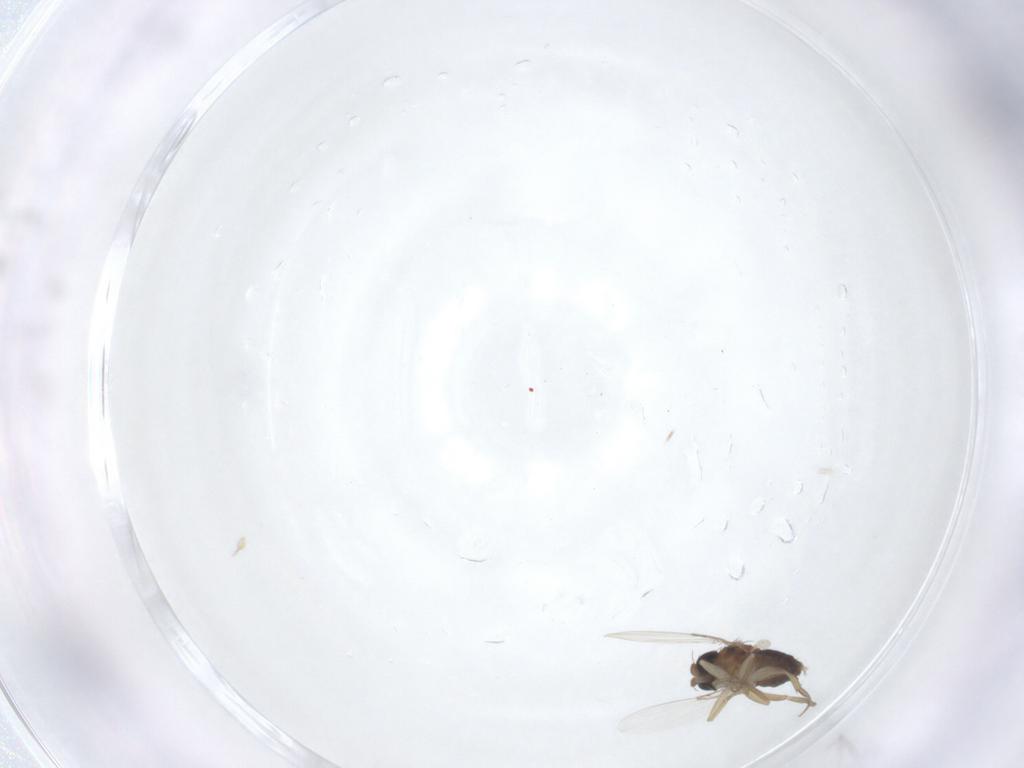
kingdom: Animalia
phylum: Arthropoda
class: Insecta
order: Diptera
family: Phoridae
